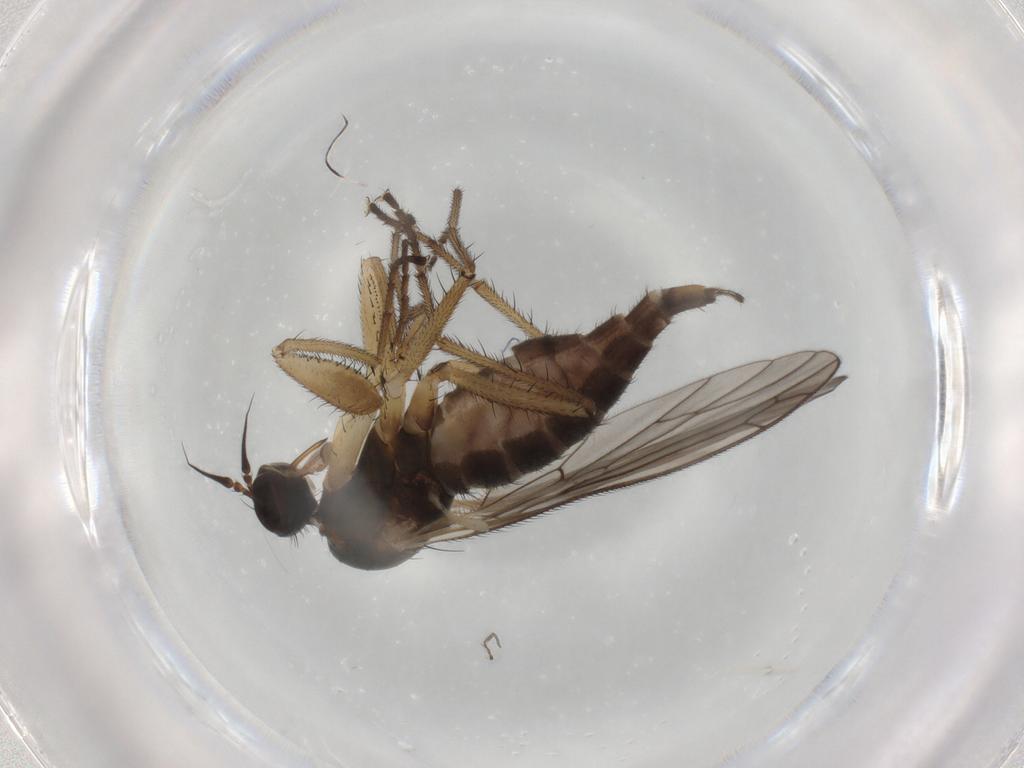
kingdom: Animalia
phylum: Arthropoda
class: Insecta
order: Diptera
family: Empididae
